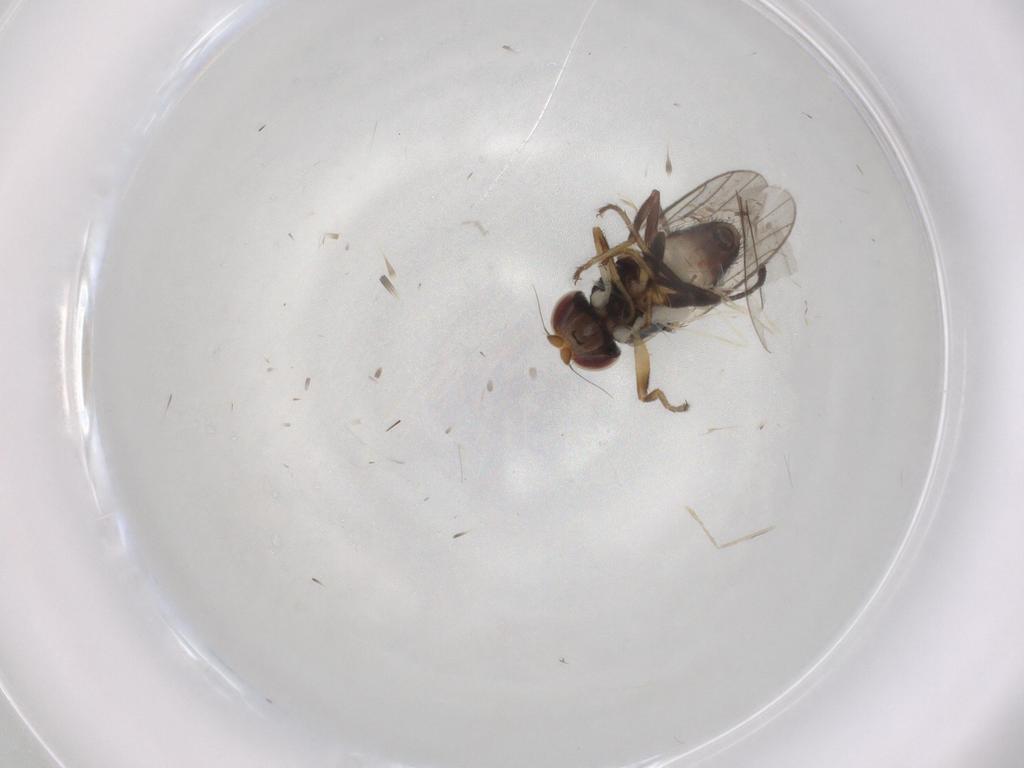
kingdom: Animalia
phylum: Arthropoda
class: Insecta
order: Diptera
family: Chloropidae
